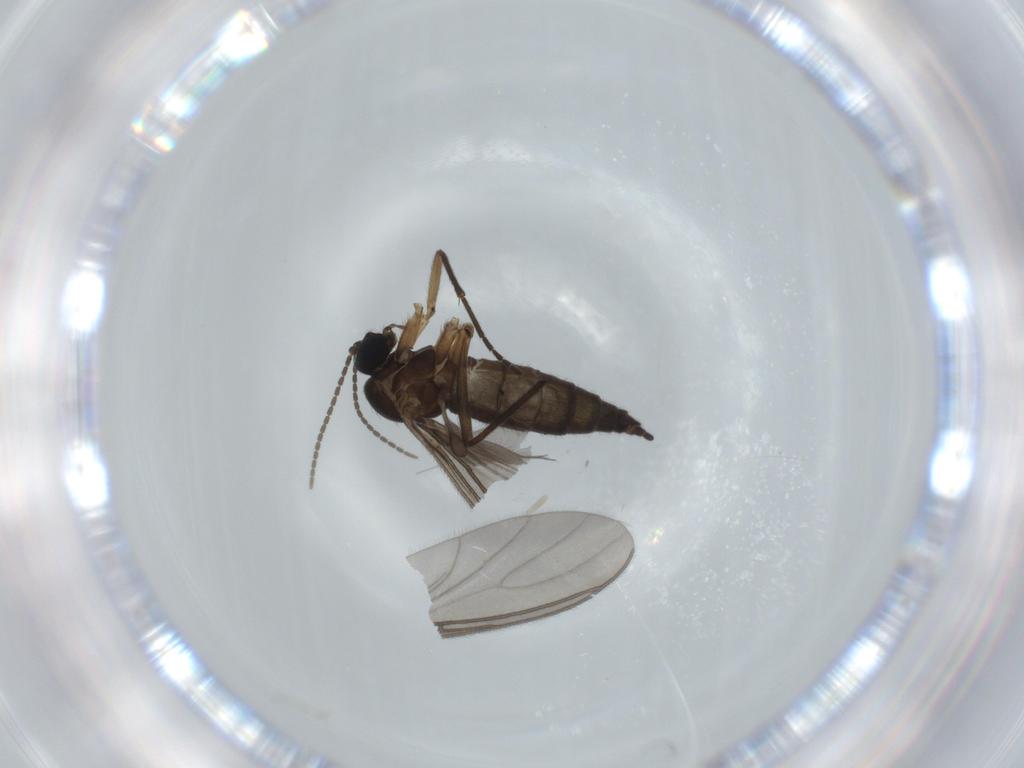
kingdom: Animalia
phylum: Arthropoda
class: Insecta
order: Diptera
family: Sciaridae
